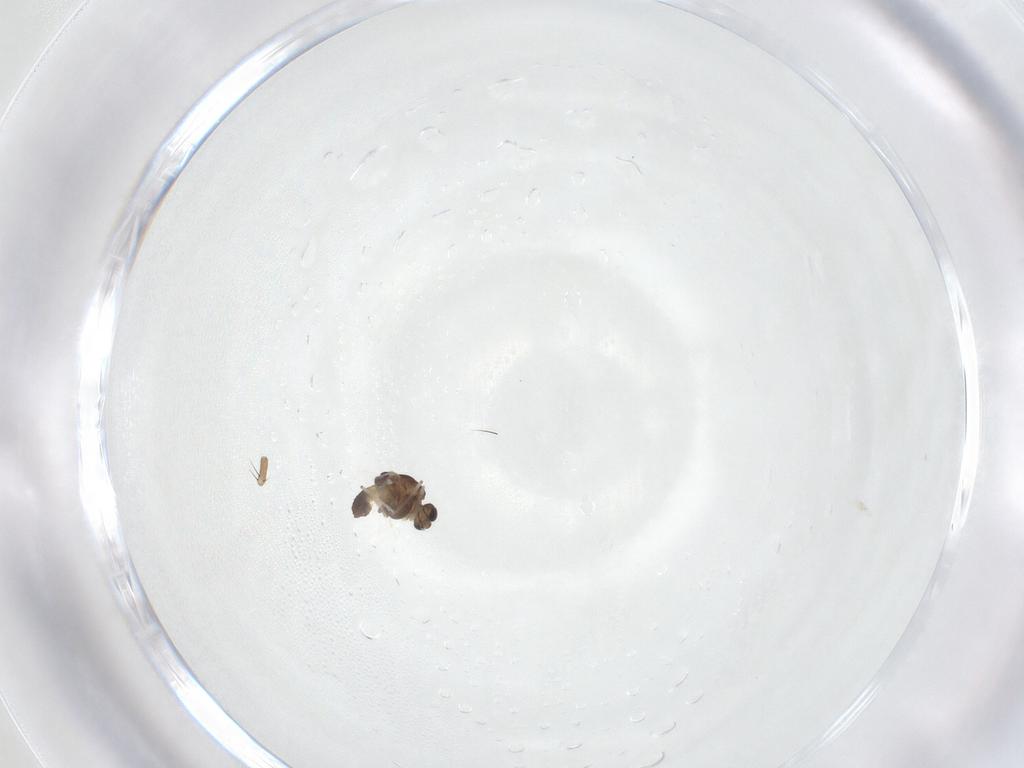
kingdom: Animalia
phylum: Arthropoda
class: Insecta
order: Diptera
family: Chironomidae
